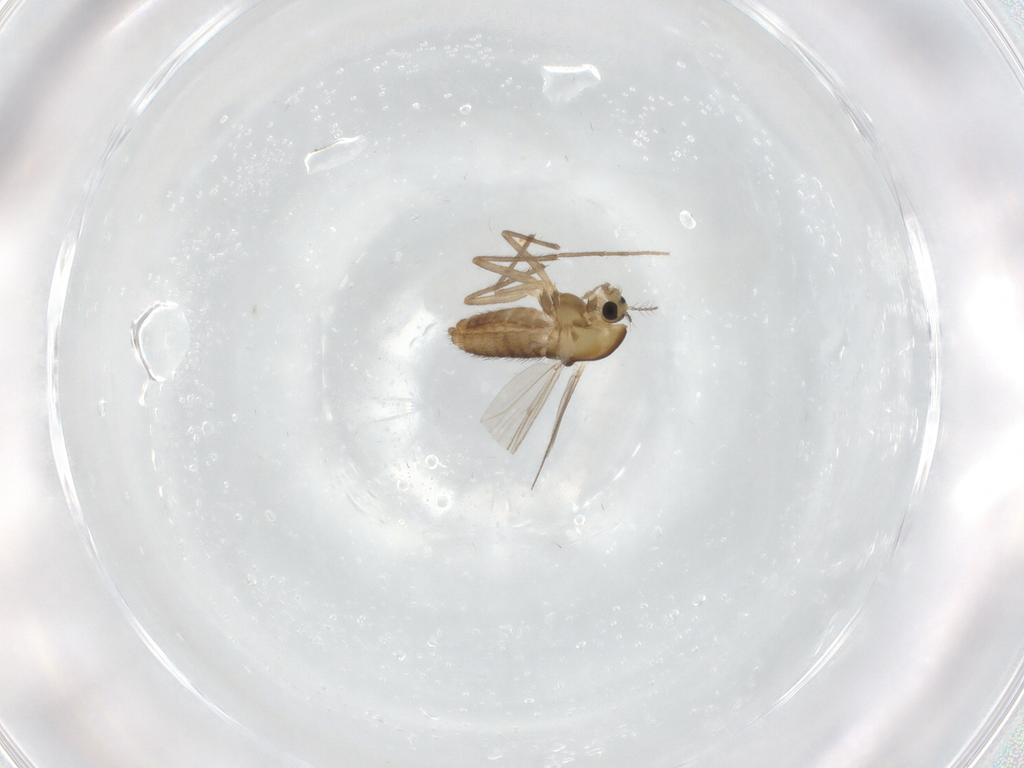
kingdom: Animalia
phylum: Arthropoda
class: Insecta
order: Diptera
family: Chironomidae
